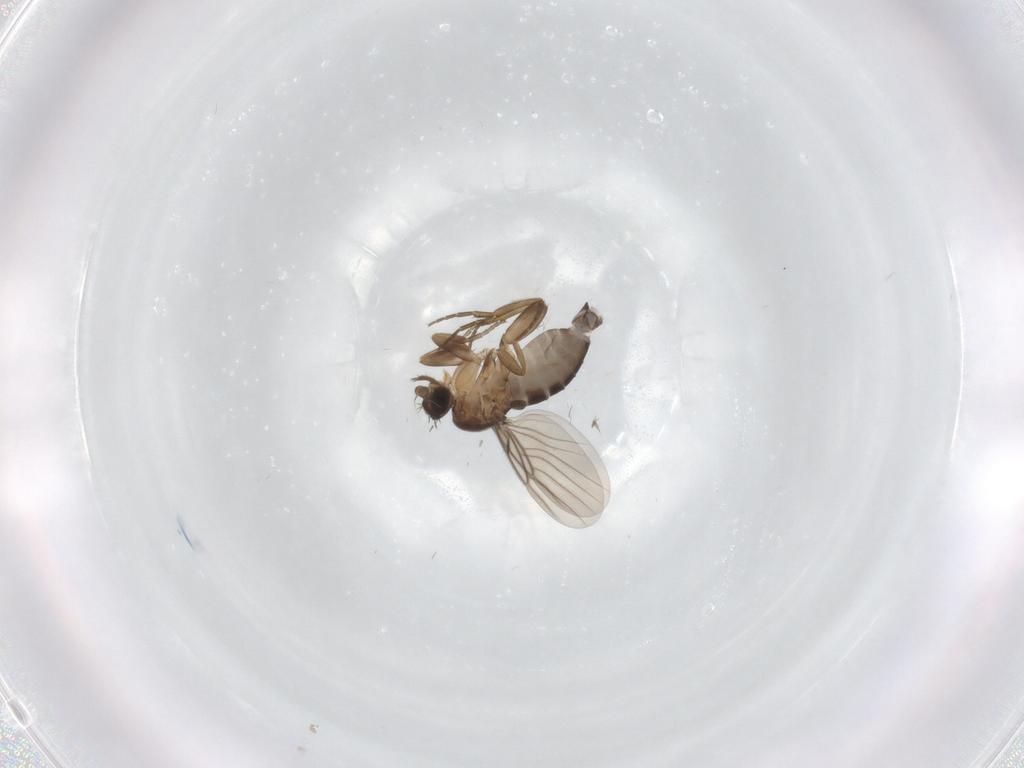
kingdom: Animalia
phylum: Arthropoda
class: Insecta
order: Diptera
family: Phoridae
